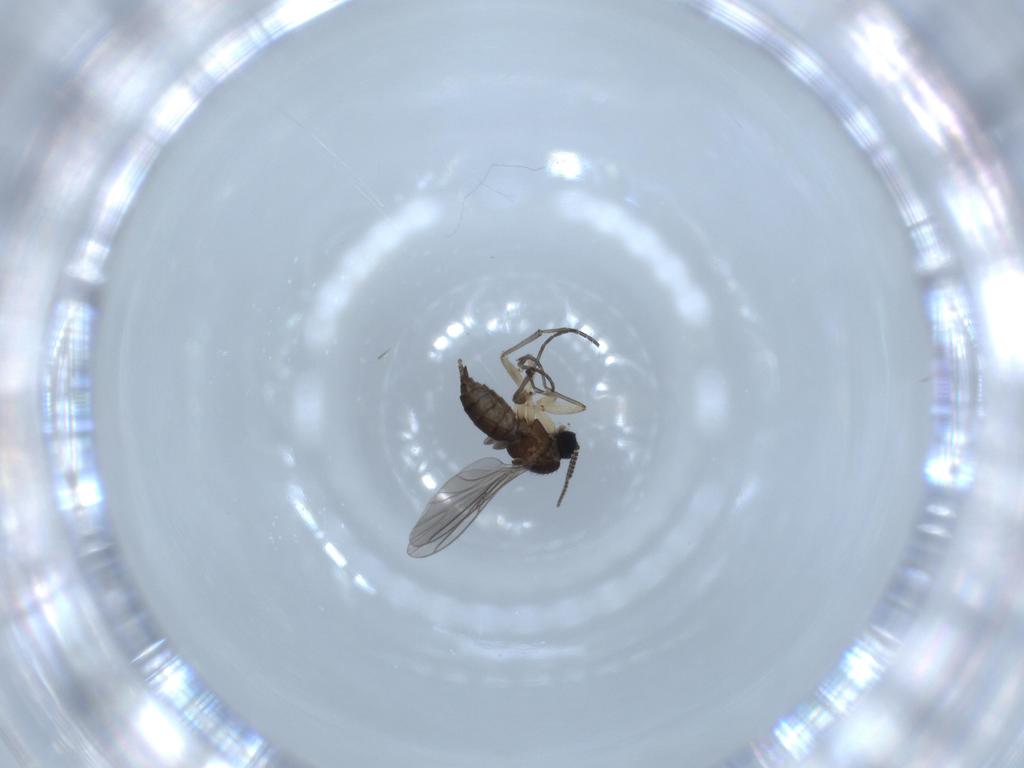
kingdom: Animalia
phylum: Arthropoda
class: Insecta
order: Diptera
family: Sciaridae
